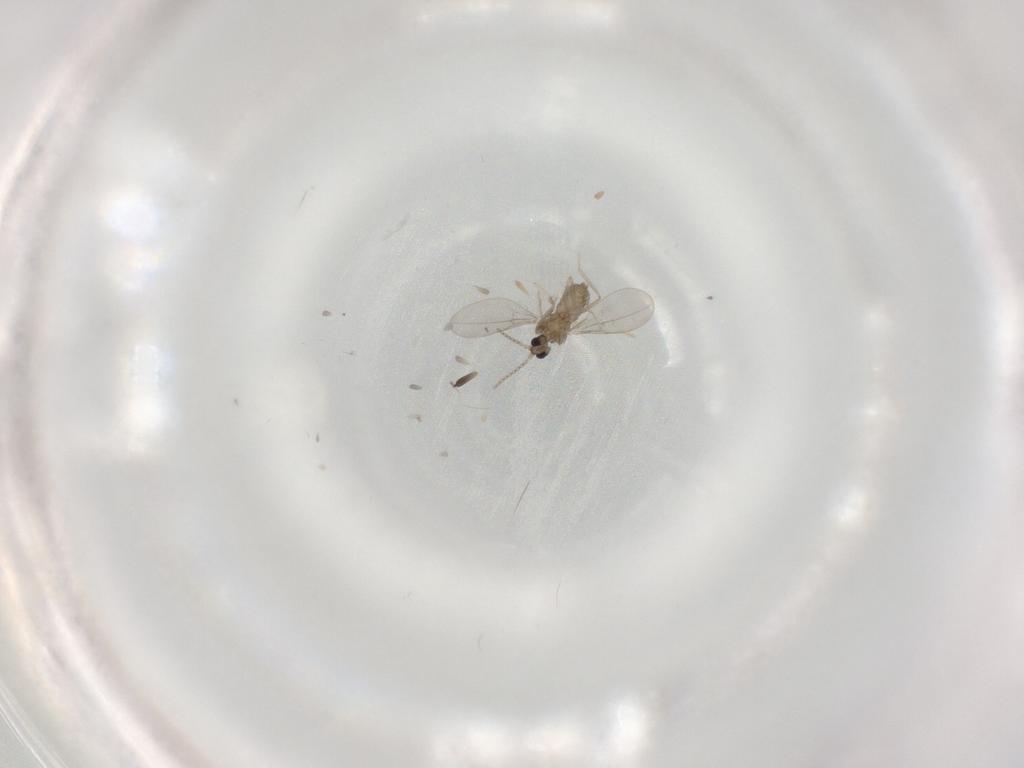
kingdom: Animalia
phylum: Arthropoda
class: Insecta
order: Diptera
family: Cecidomyiidae
